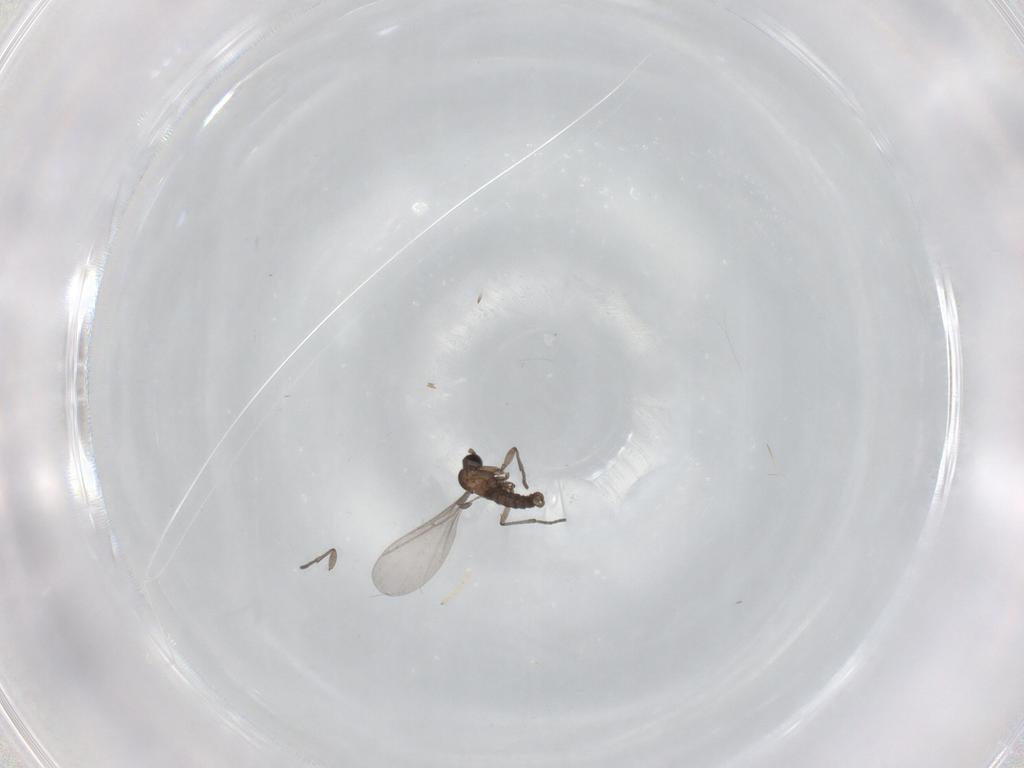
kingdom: Animalia
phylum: Arthropoda
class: Insecta
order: Diptera
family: Cecidomyiidae
